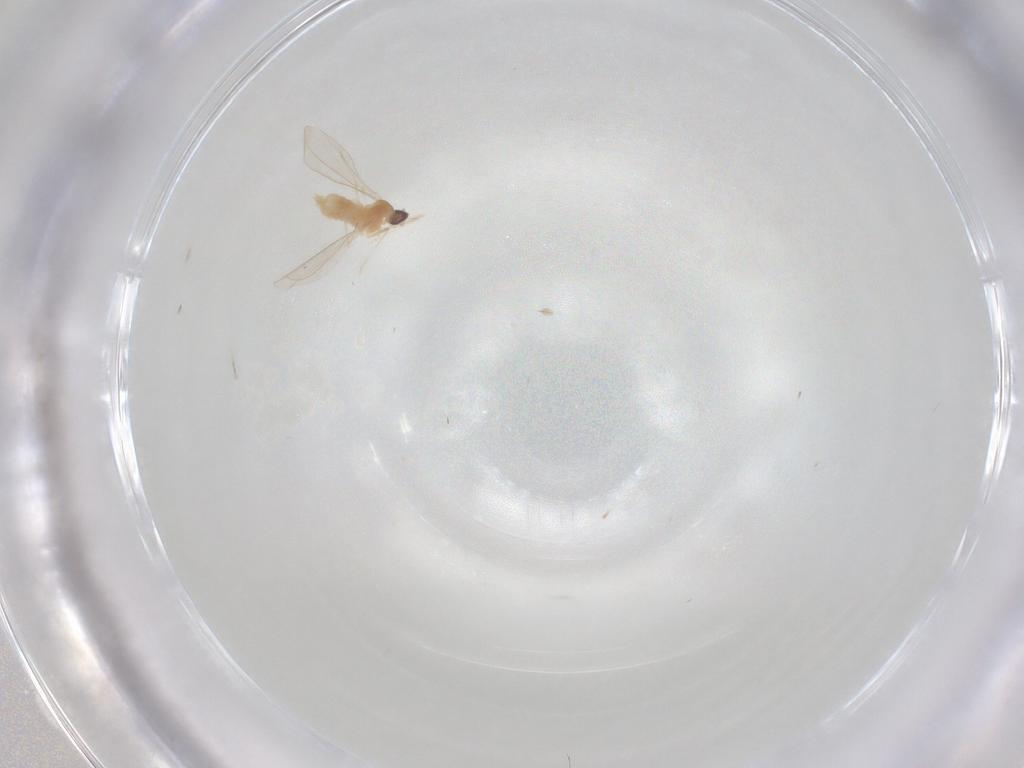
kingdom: Animalia
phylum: Arthropoda
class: Insecta
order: Diptera
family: Cecidomyiidae
